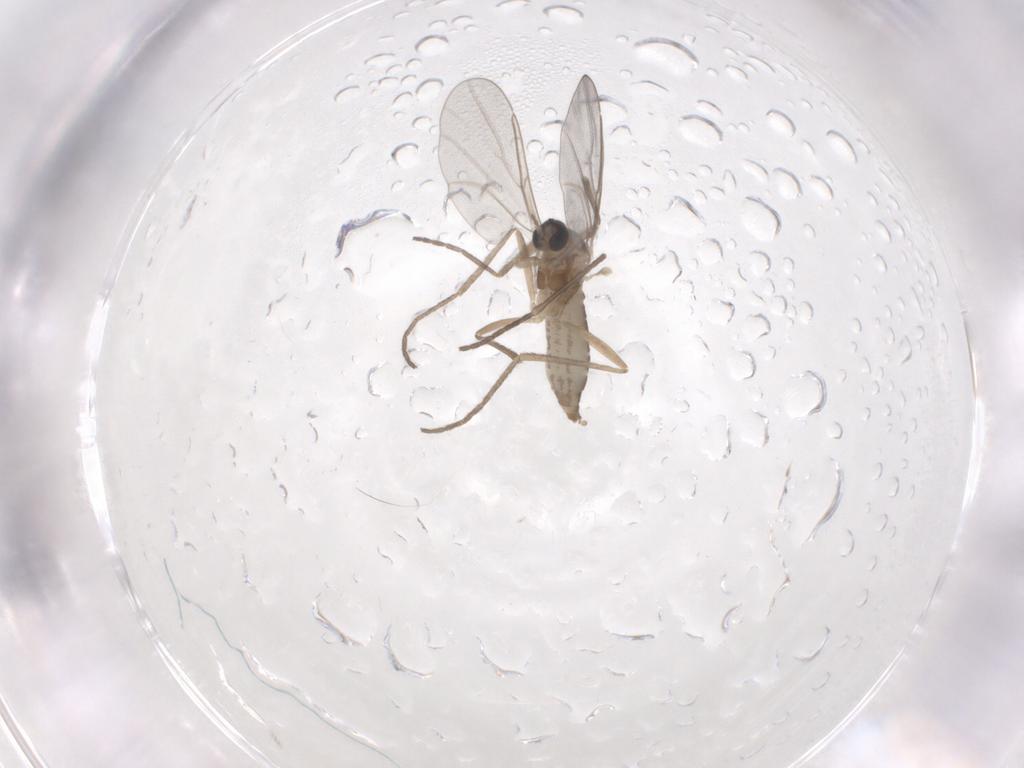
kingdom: Animalia
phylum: Arthropoda
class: Insecta
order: Diptera
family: Cecidomyiidae
